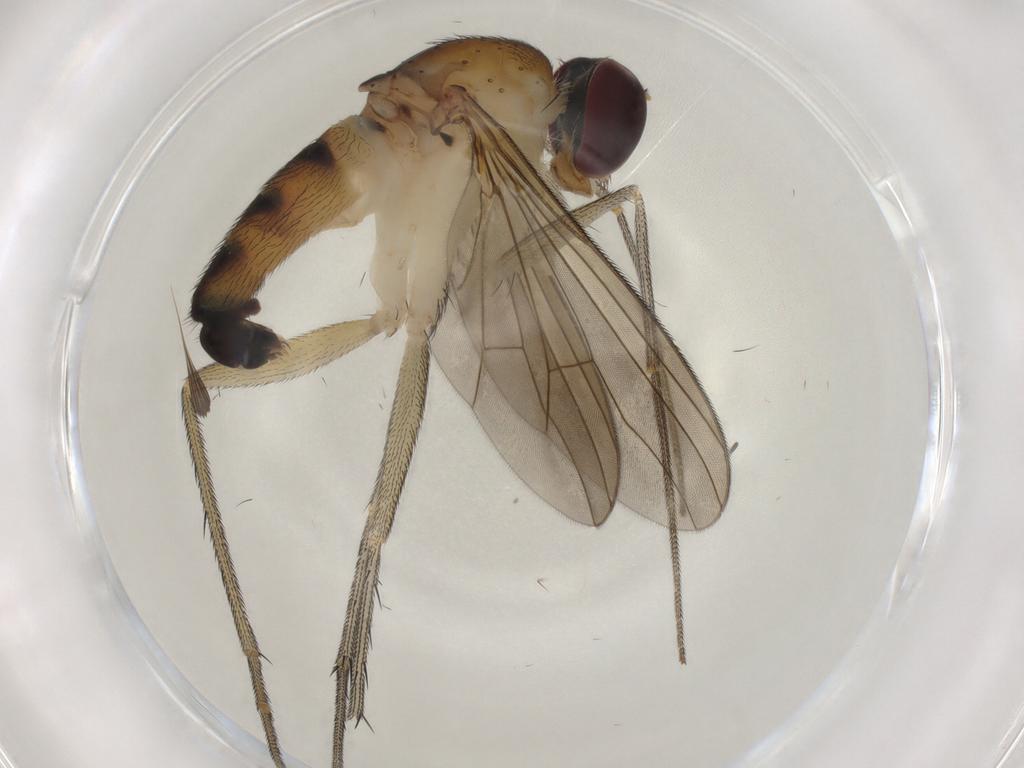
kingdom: Animalia
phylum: Arthropoda
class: Insecta
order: Diptera
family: Dolichopodidae
